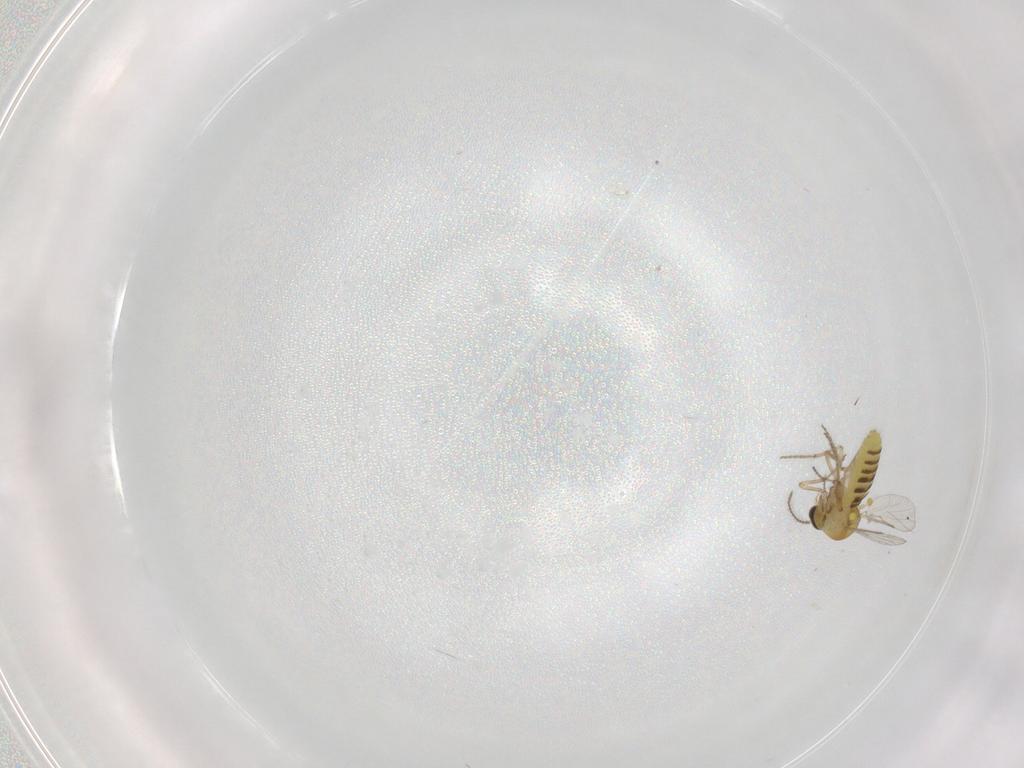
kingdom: Animalia
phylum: Arthropoda
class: Insecta
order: Diptera
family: Ceratopogonidae
